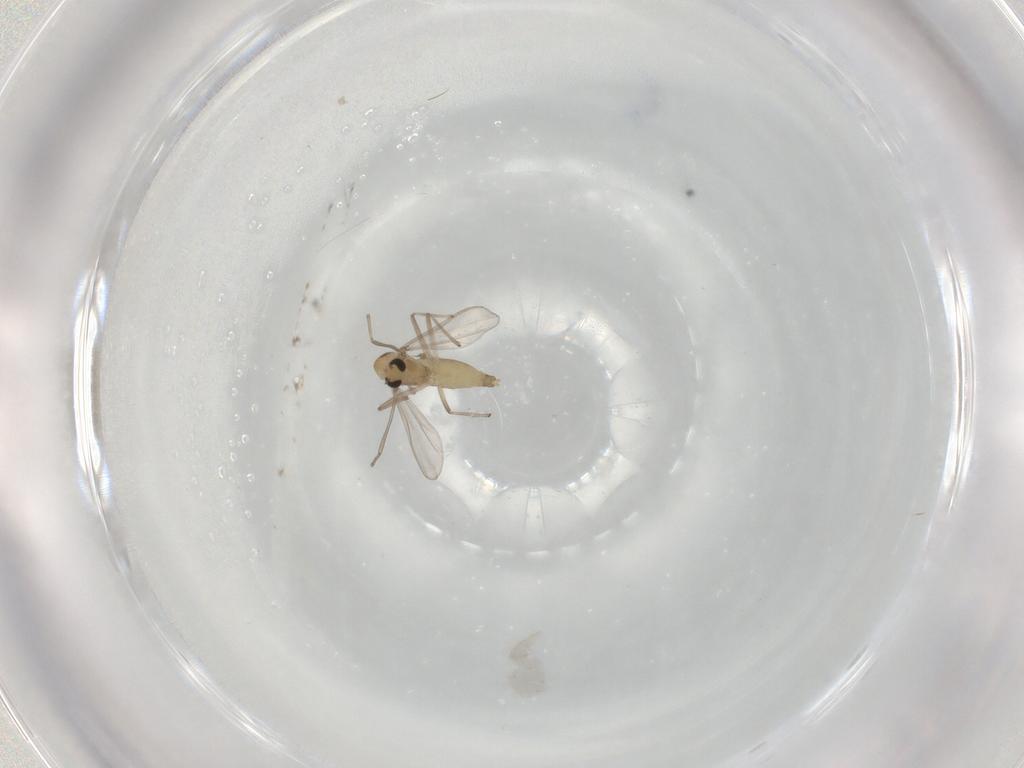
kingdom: Animalia
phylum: Arthropoda
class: Insecta
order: Diptera
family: Chironomidae
